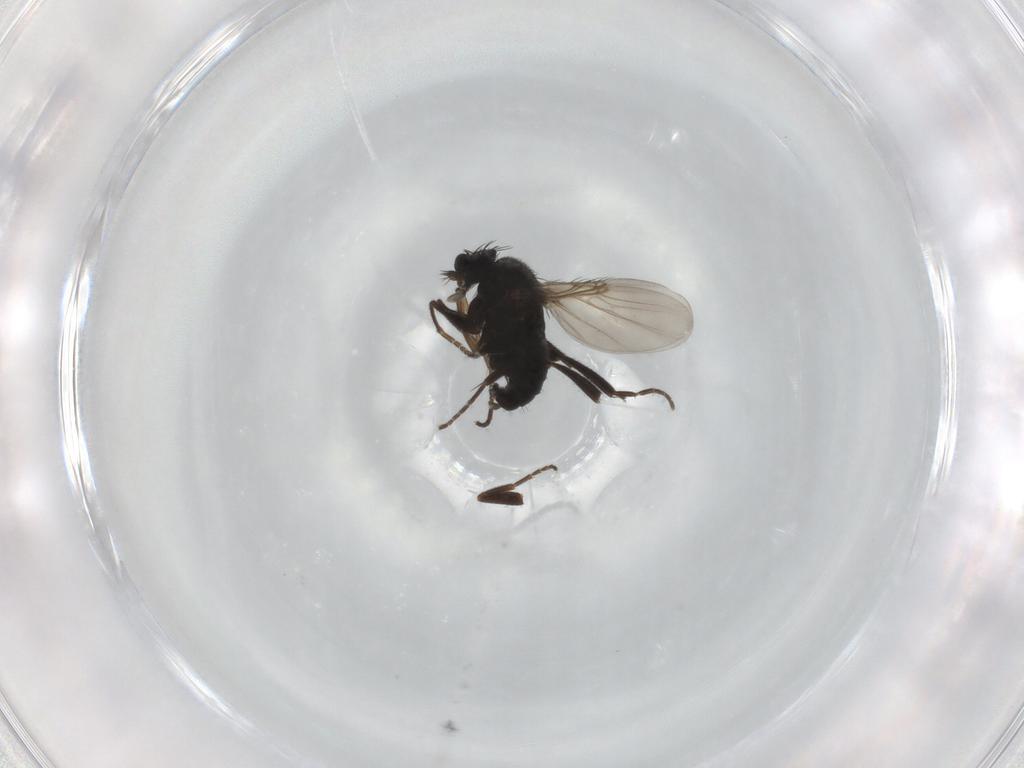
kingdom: Animalia
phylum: Arthropoda
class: Insecta
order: Diptera
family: Phoridae
